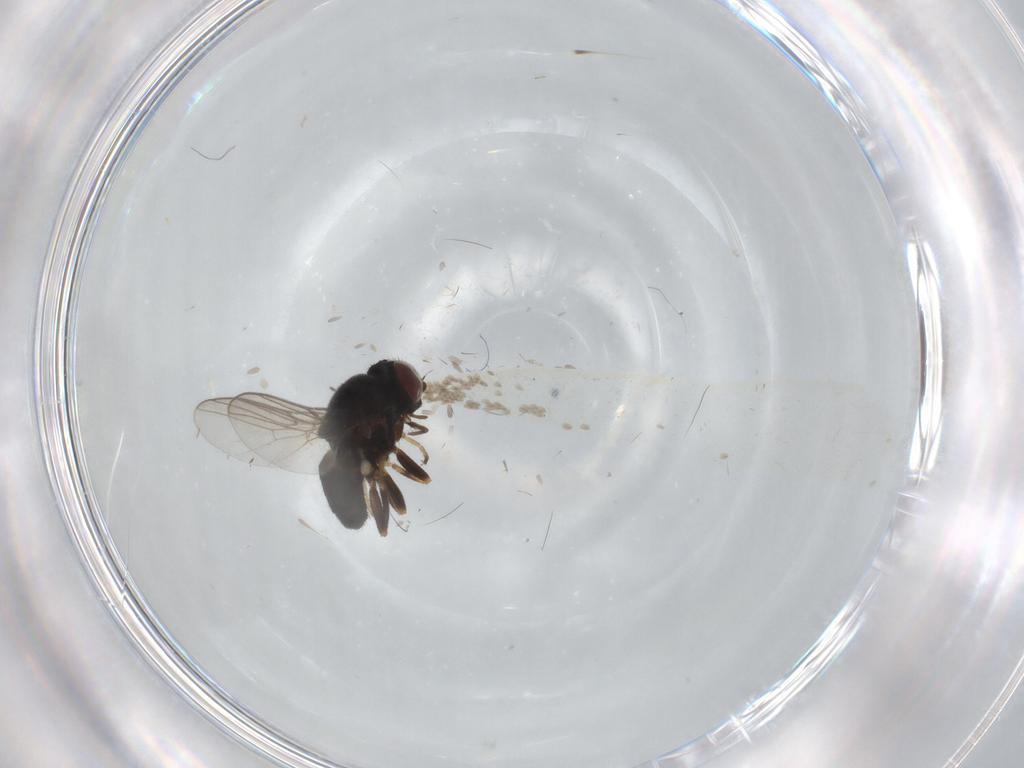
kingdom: Animalia
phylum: Arthropoda
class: Insecta
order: Diptera
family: Chloropidae
